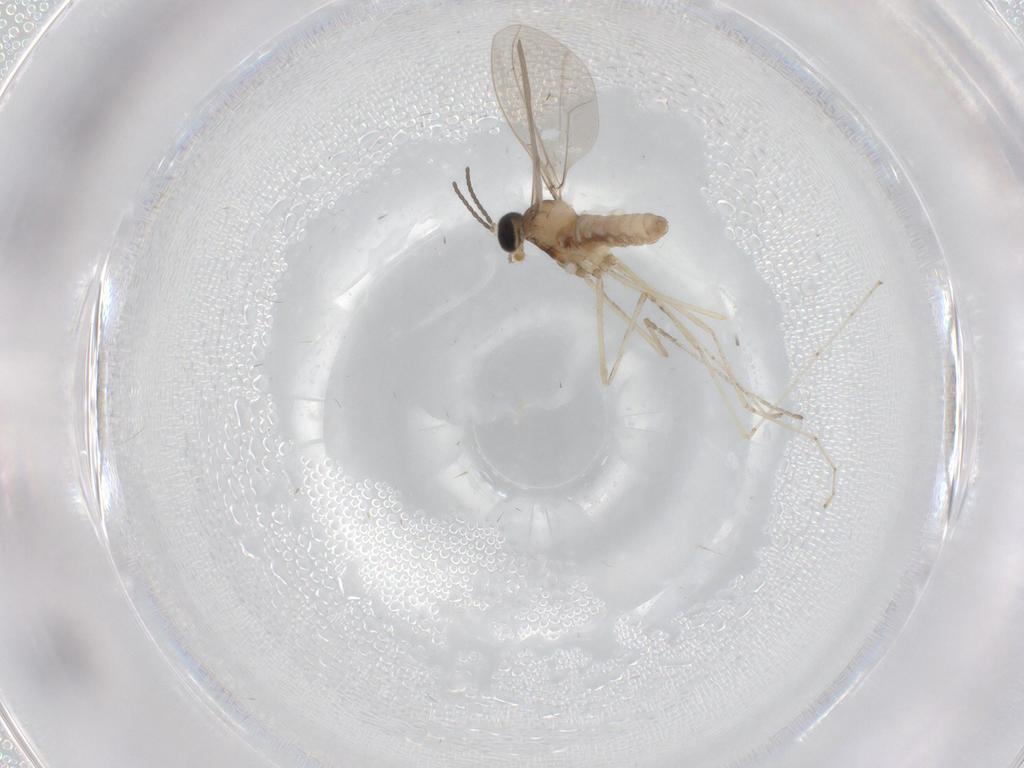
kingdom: Animalia
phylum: Arthropoda
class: Insecta
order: Diptera
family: Cecidomyiidae
